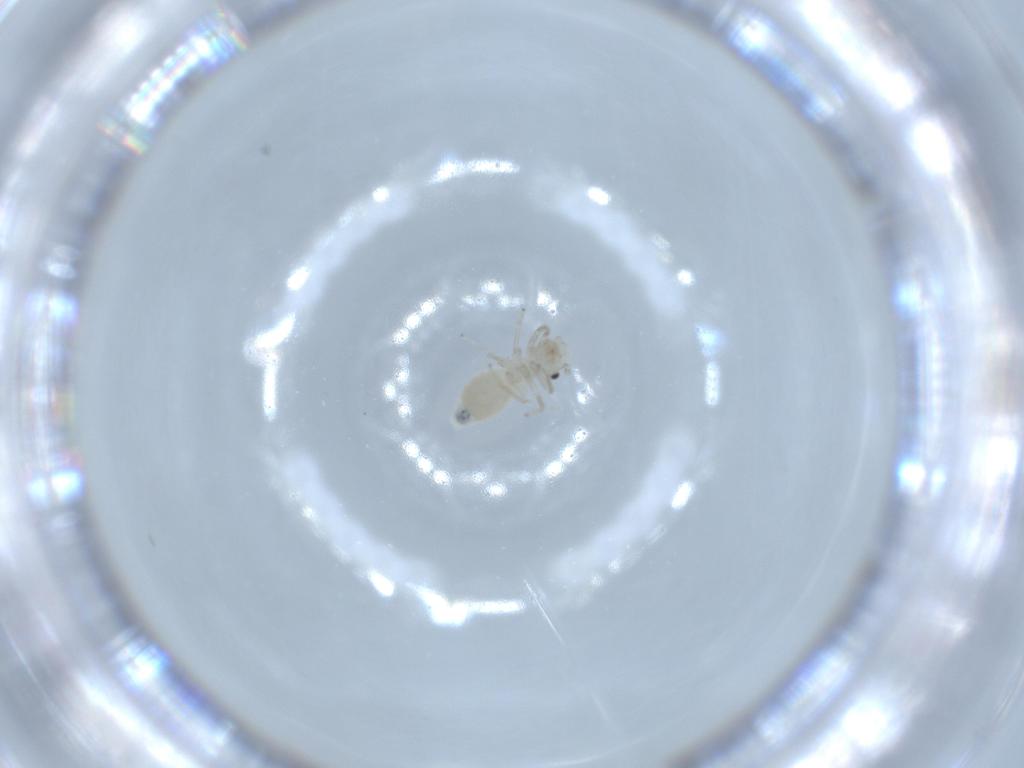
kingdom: Animalia
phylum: Arthropoda
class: Insecta
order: Psocodea
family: Caeciliusidae
